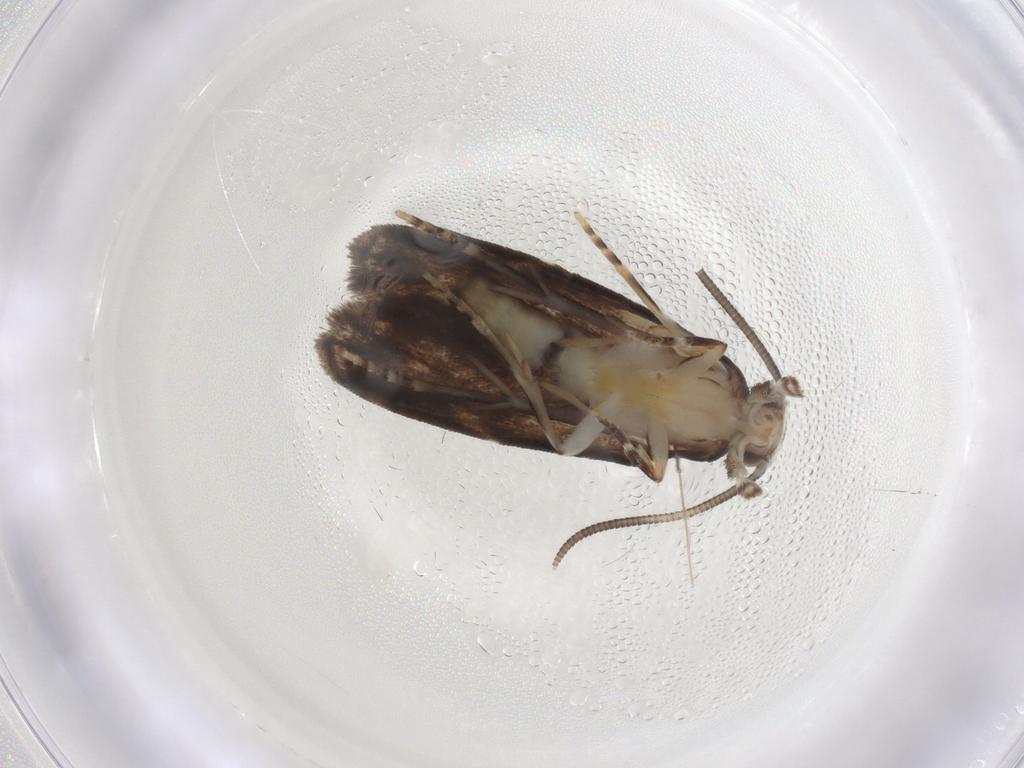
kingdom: Animalia
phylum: Arthropoda
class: Insecta
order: Lepidoptera
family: Dryadaulidae
